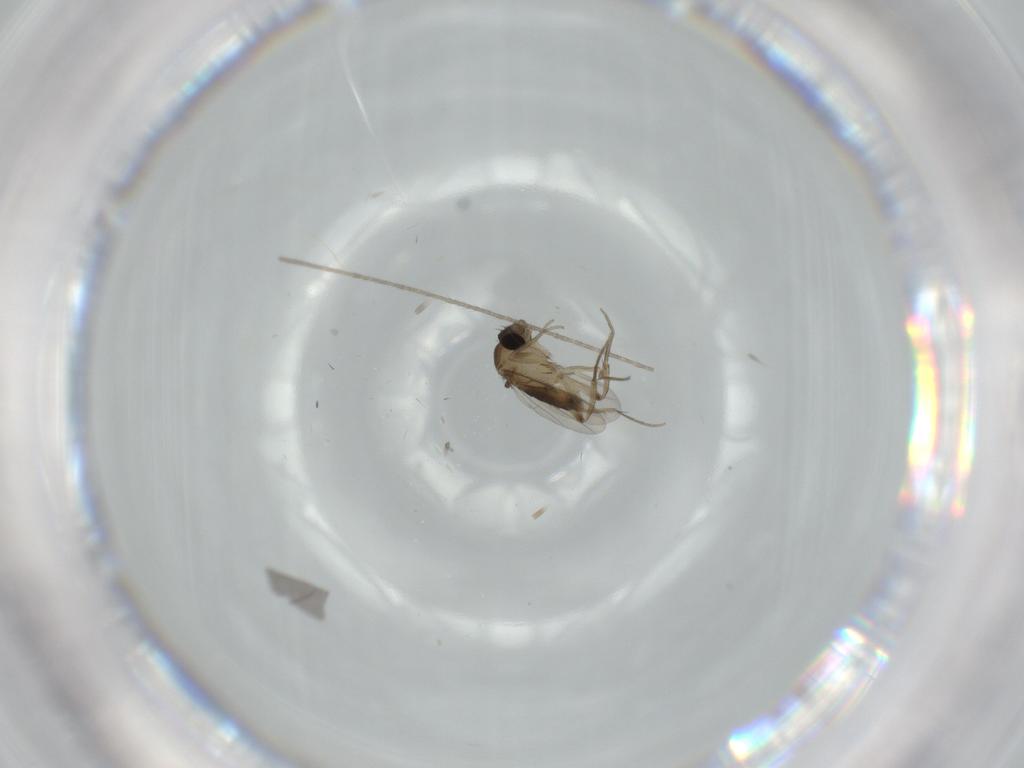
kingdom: Animalia
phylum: Arthropoda
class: Insecta
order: Diptera
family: Phoridae
